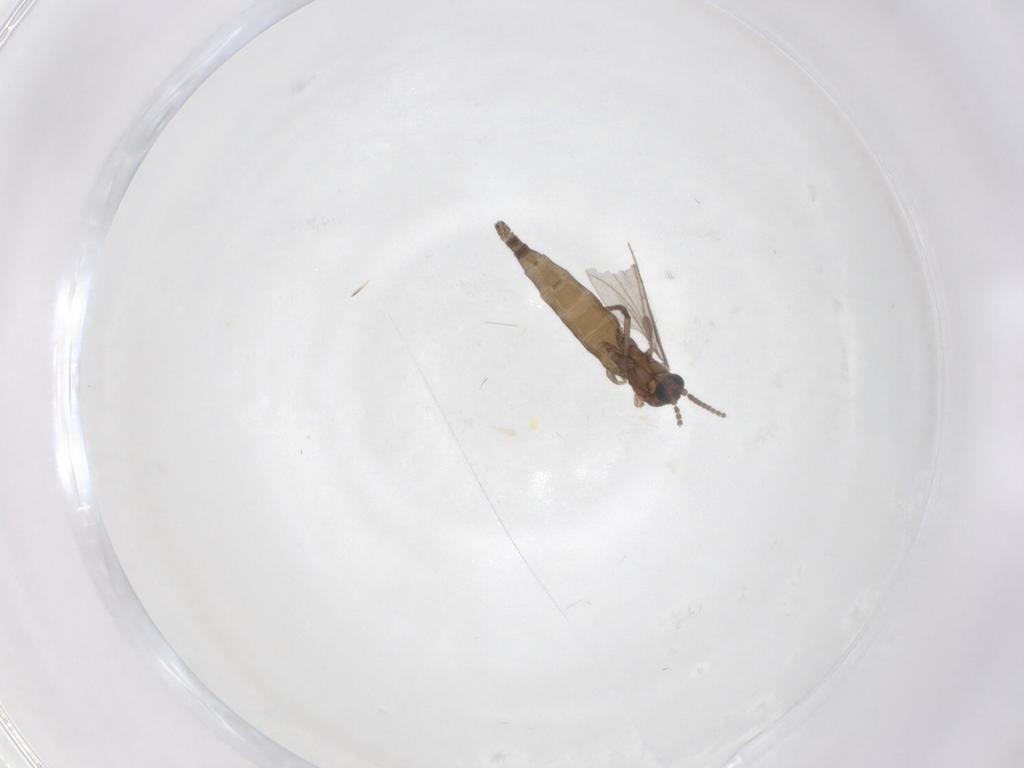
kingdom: Animalia
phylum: Arthropoda
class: Insecta
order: Diptera
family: Sciaridae
